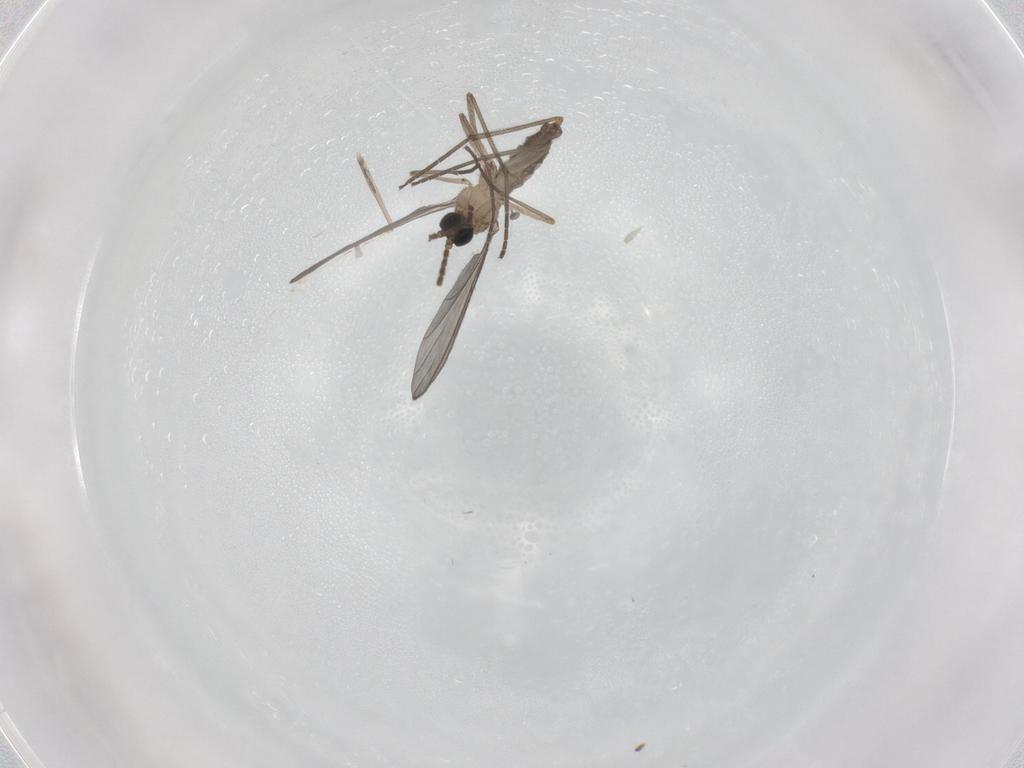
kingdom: Animalia
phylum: Arthropoda
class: Insecta
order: Diptera
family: Sciaridae
